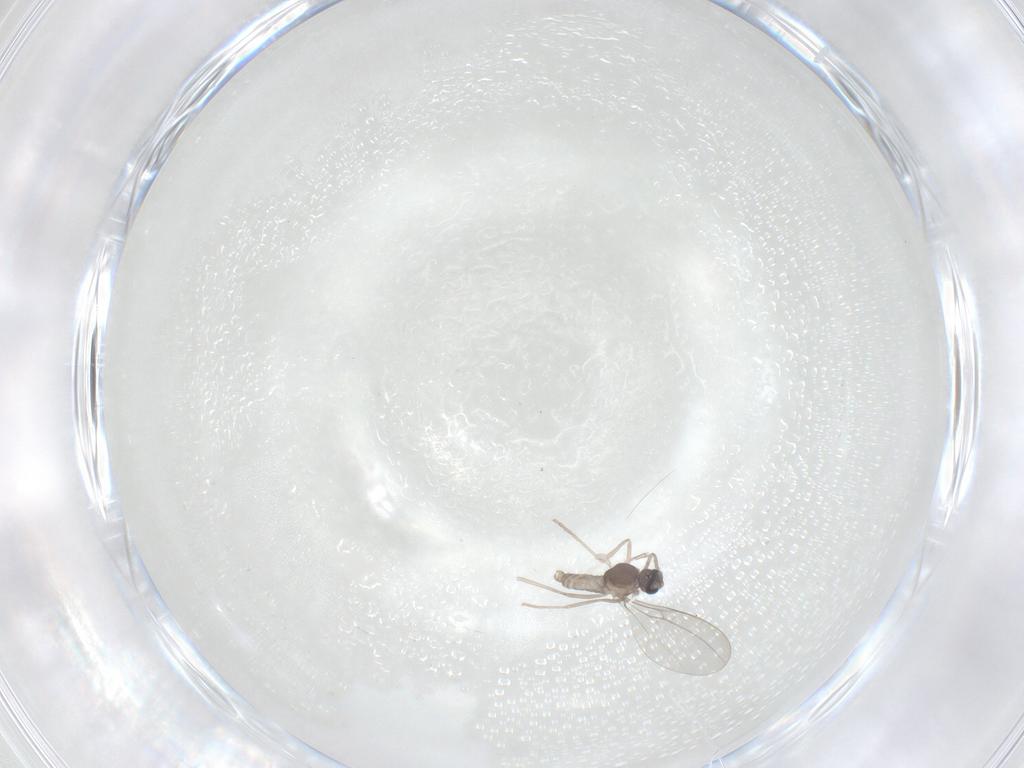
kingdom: Animalia
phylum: Arthropoda
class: Insecta
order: Diptera
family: Cecidomyiidae
